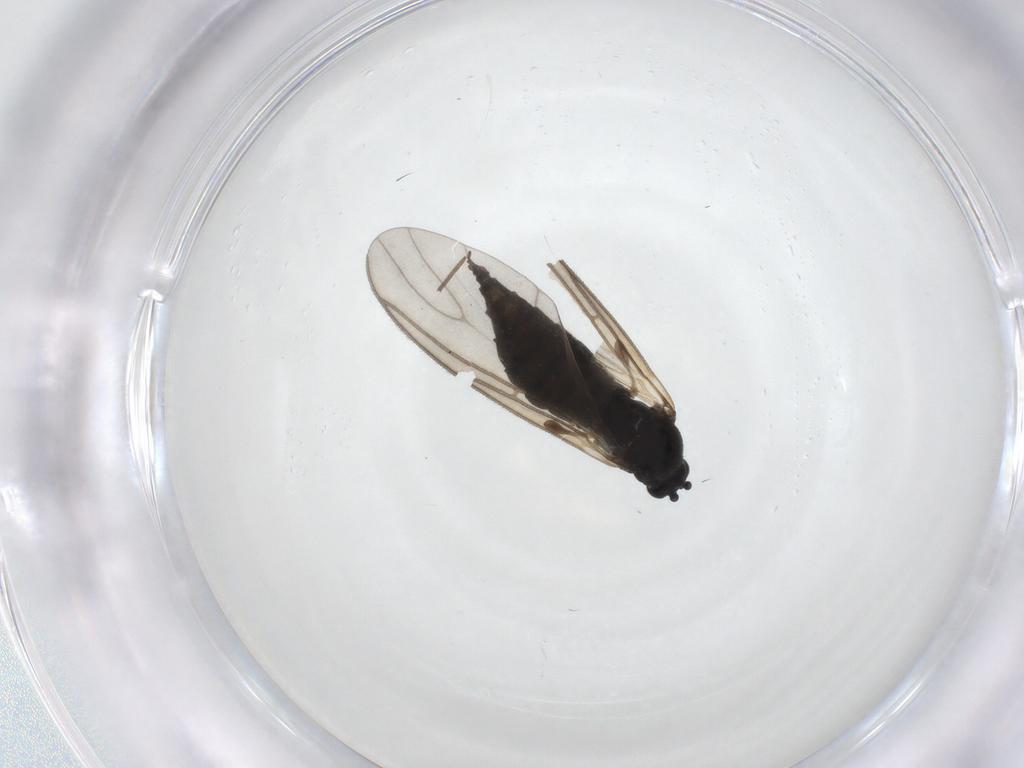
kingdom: Animalia
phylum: Arthropoda
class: Insecta
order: Diptera
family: Sciaridae
